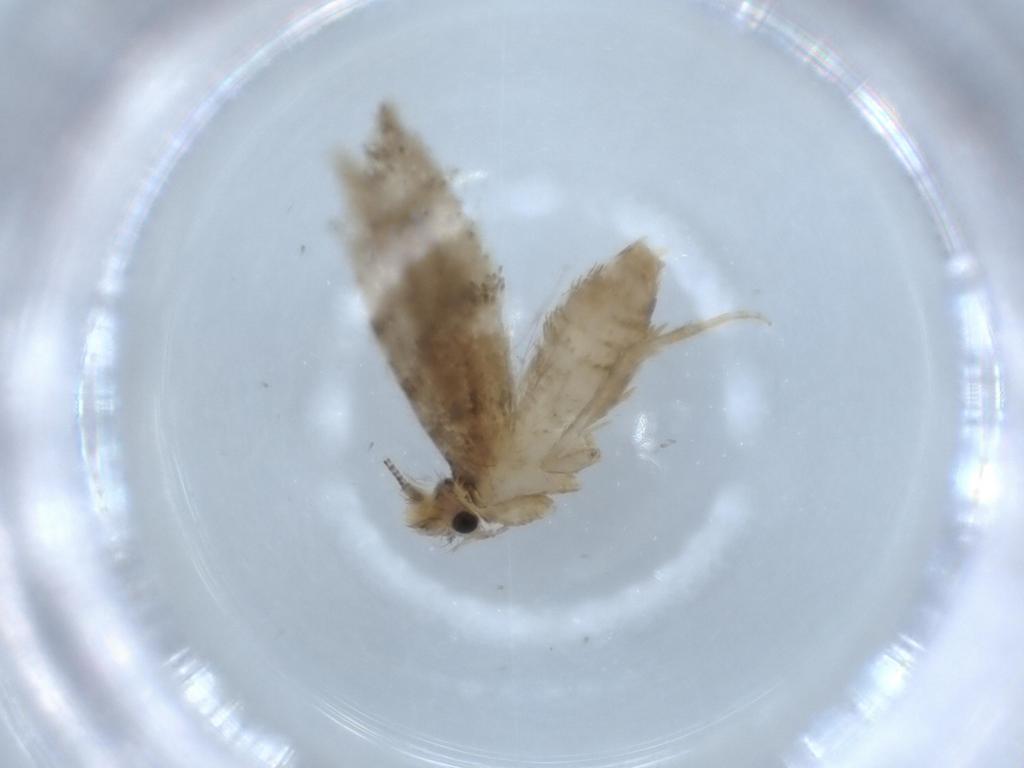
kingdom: Animalia
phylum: Arthropoda
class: Insecta
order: Lepidoptera
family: Tineidae
